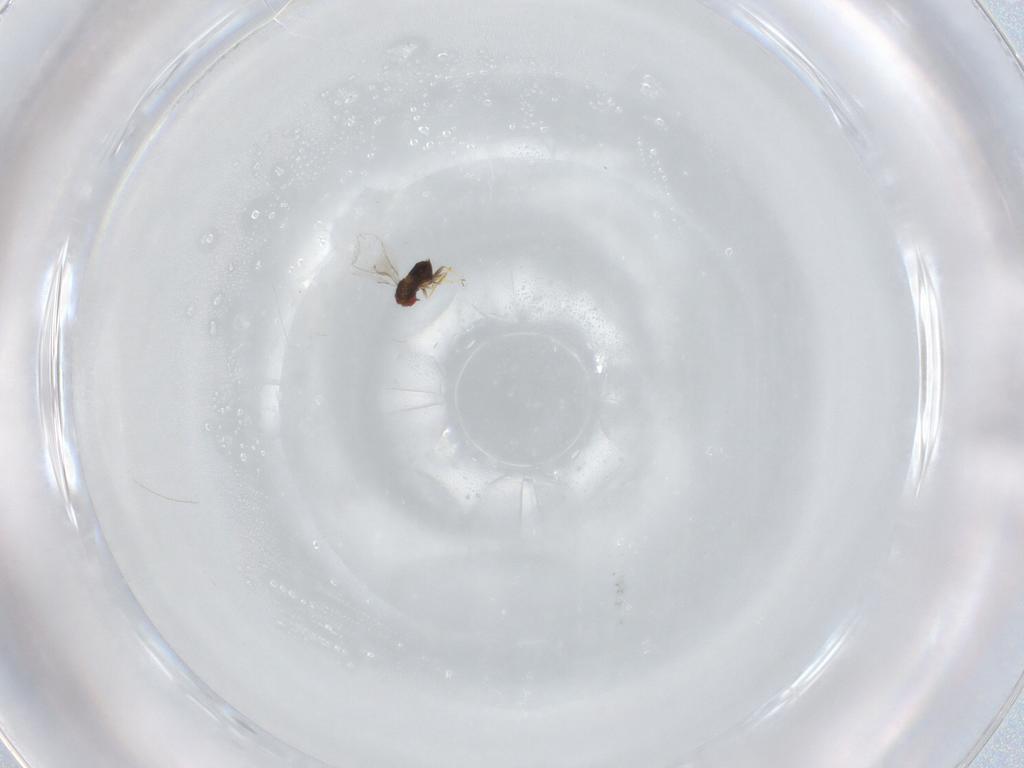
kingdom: Animalia
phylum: Arthropoda
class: Insecta
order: Hymenoptera
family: Trichogrammatidae
